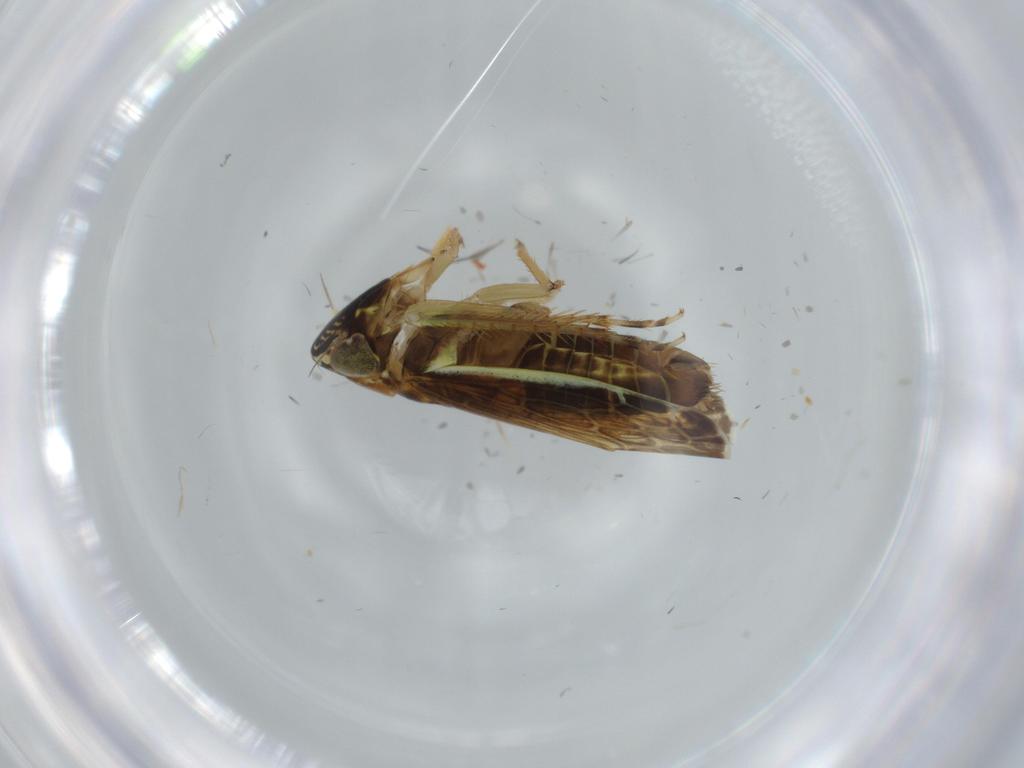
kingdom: Animalia
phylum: Arthropoda
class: Insecta
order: Hemiptera
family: Cicadellidae
